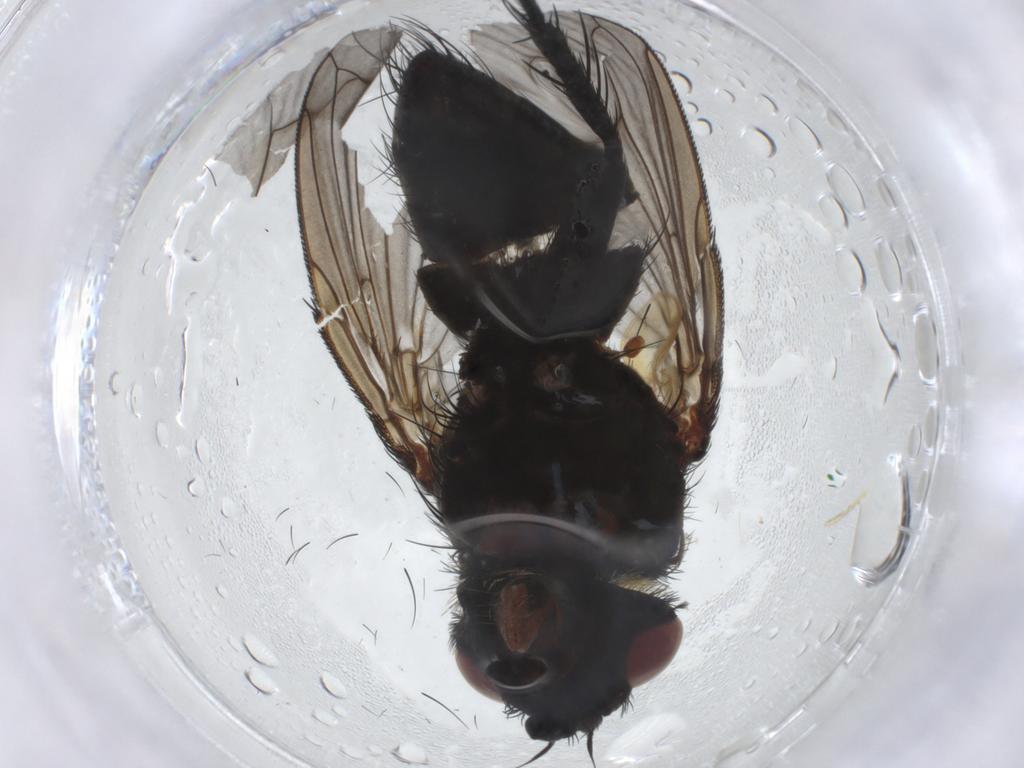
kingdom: Animalia
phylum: Arthropoda
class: Insecta
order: Diptera
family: Tachinidae
